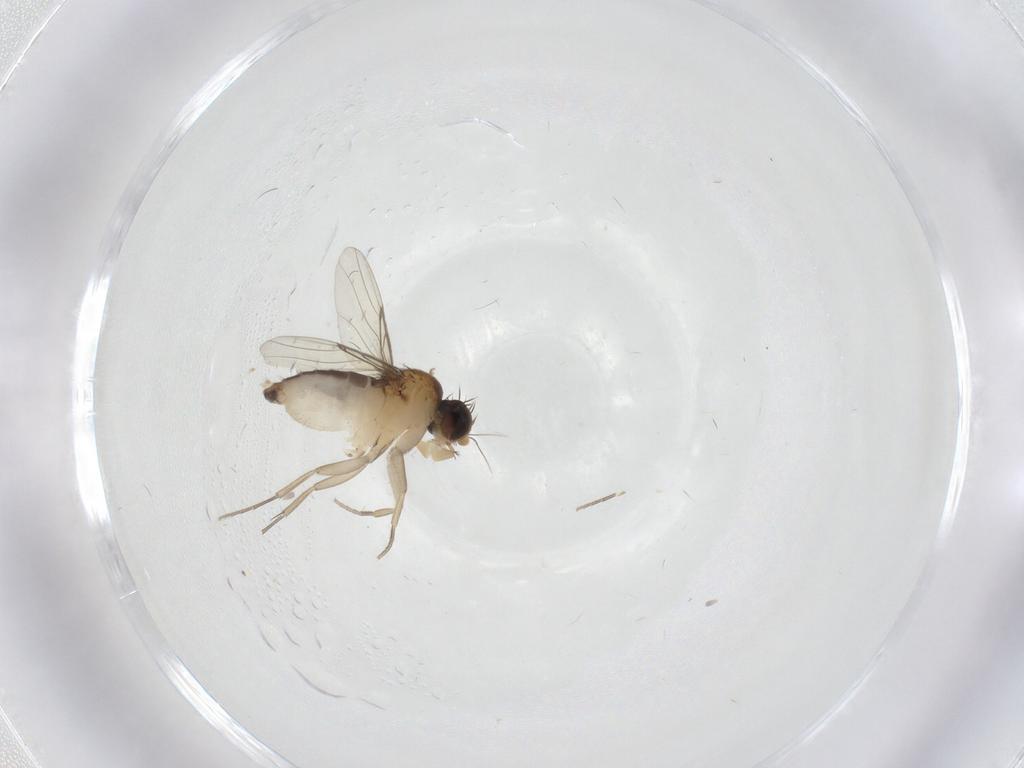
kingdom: Animalia
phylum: Arthropoda
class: Insecta
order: Diptera
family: Phoridae
